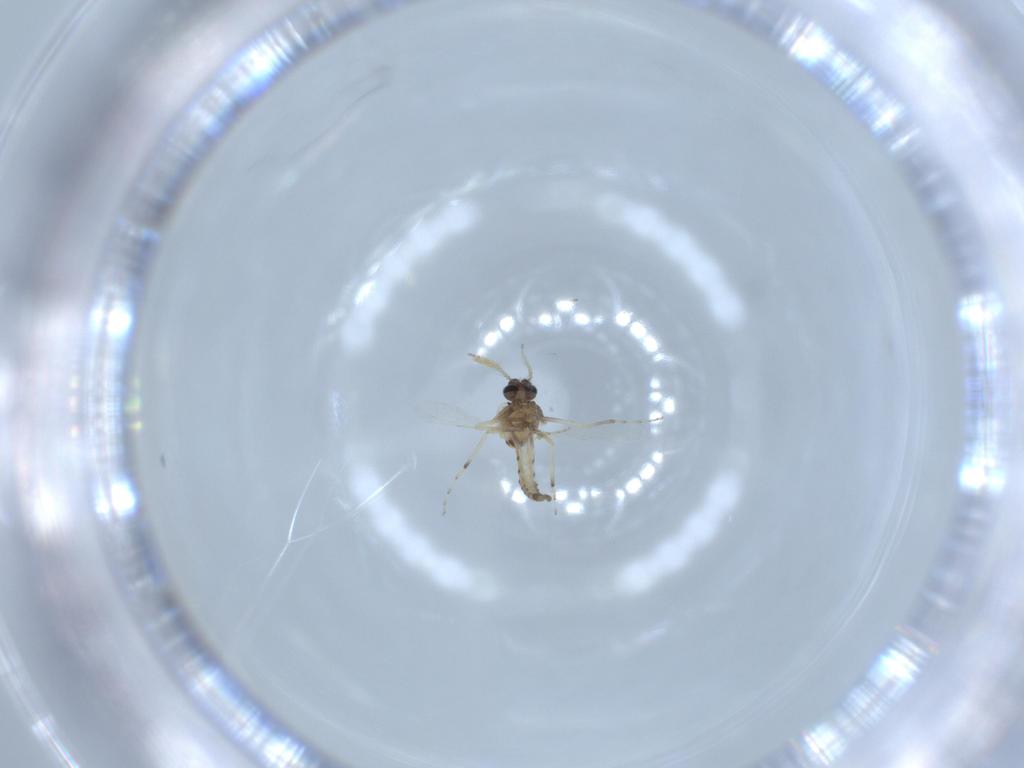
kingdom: Animalia
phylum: Arthropoda
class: Insecta
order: Diptera
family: Ceratopogonidae
